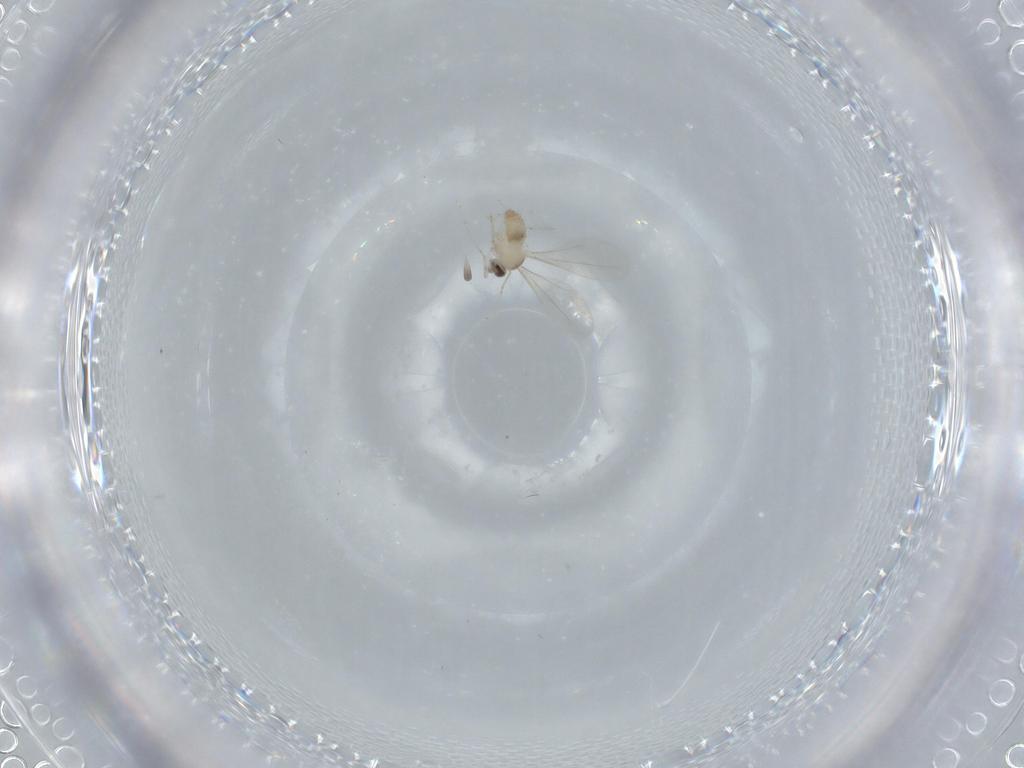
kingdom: Animalia
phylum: Arthropoda
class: Insecta
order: Diptera
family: Cecidomyiidae
